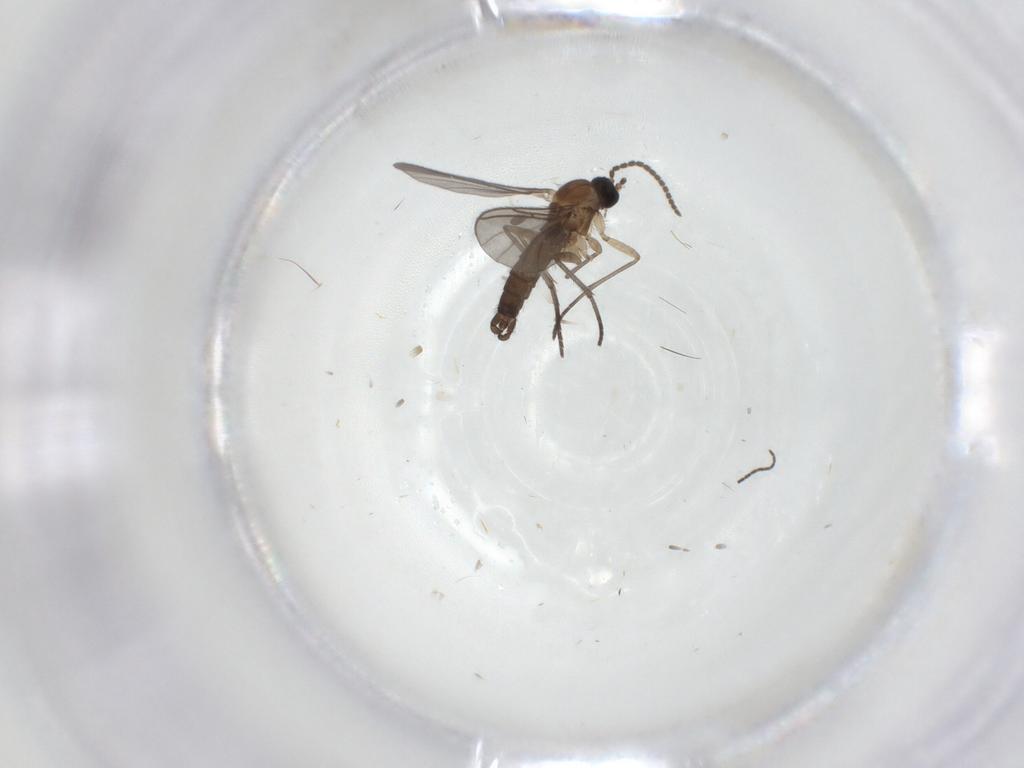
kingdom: Animalia
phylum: Arthropoda
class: Insecta
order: Diptera
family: Sciaridae
